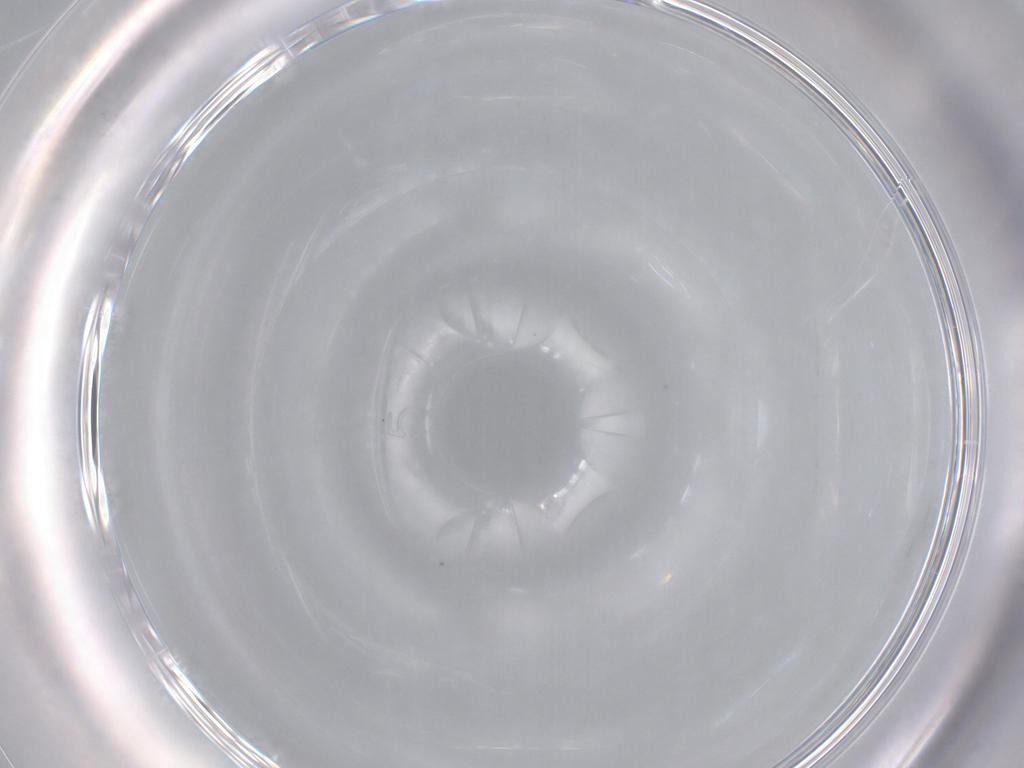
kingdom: Animalia
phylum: Arthropoda
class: Insecta
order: Diptera
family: Drosophilidae
